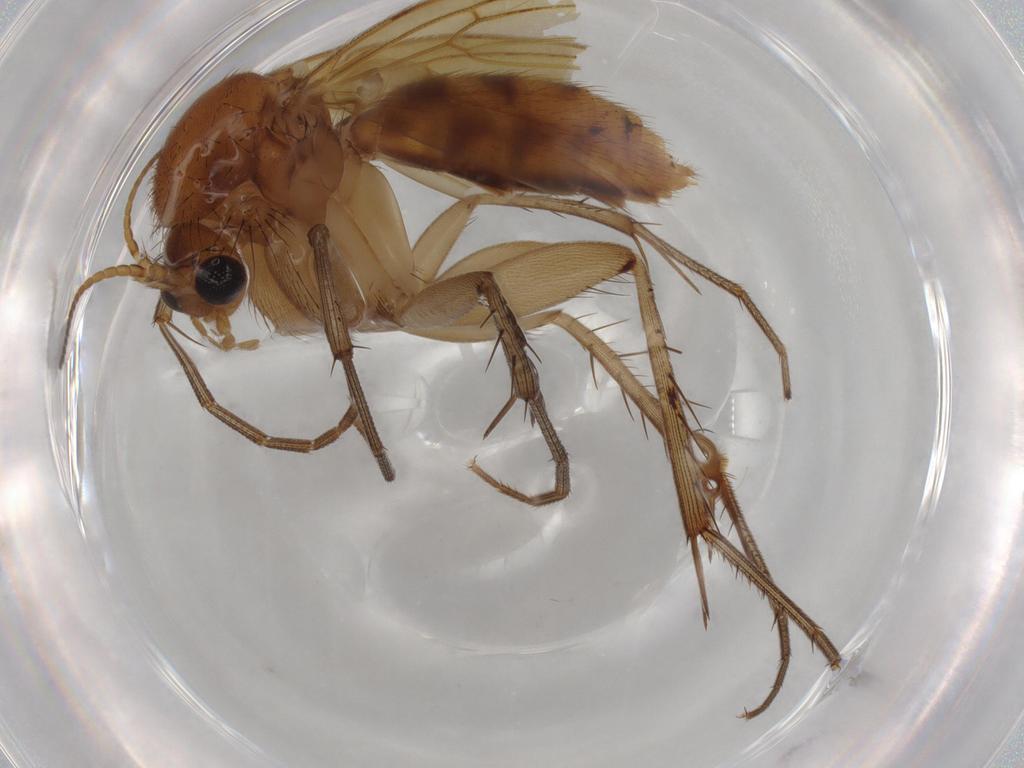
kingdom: Animalia
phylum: Arthropoda
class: Insecta
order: Diptera
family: Mycetophilidae
